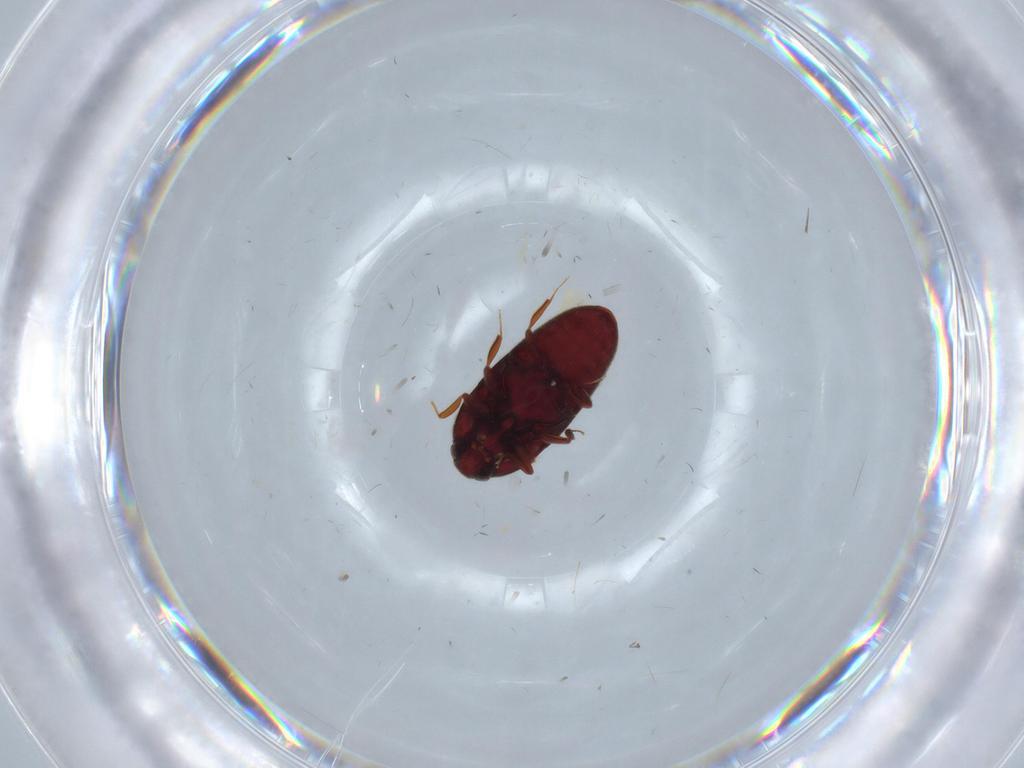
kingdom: Animalia
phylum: Arthropoda
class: Insecta
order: Coleoptera
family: Throscidae
